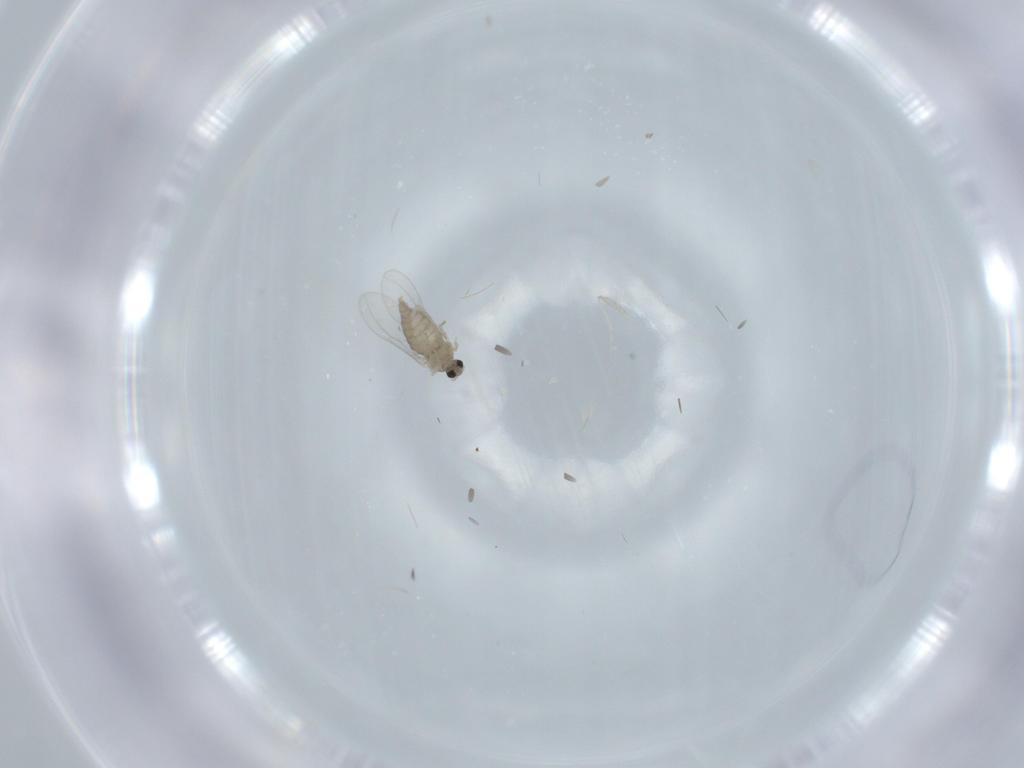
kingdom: Animalia
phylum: Arthropoda
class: Insecta
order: Diptera
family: Cecidomyiidae
